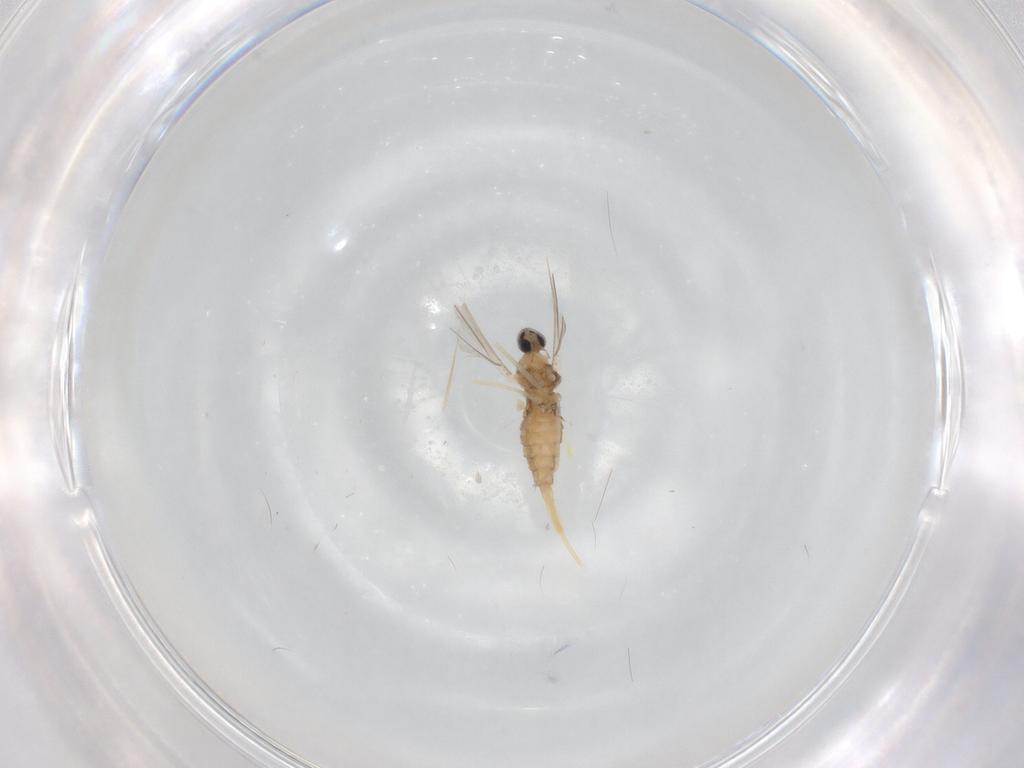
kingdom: Animalia
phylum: Arthropoda
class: Insecta
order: Diptera
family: Cecidomyiidae
